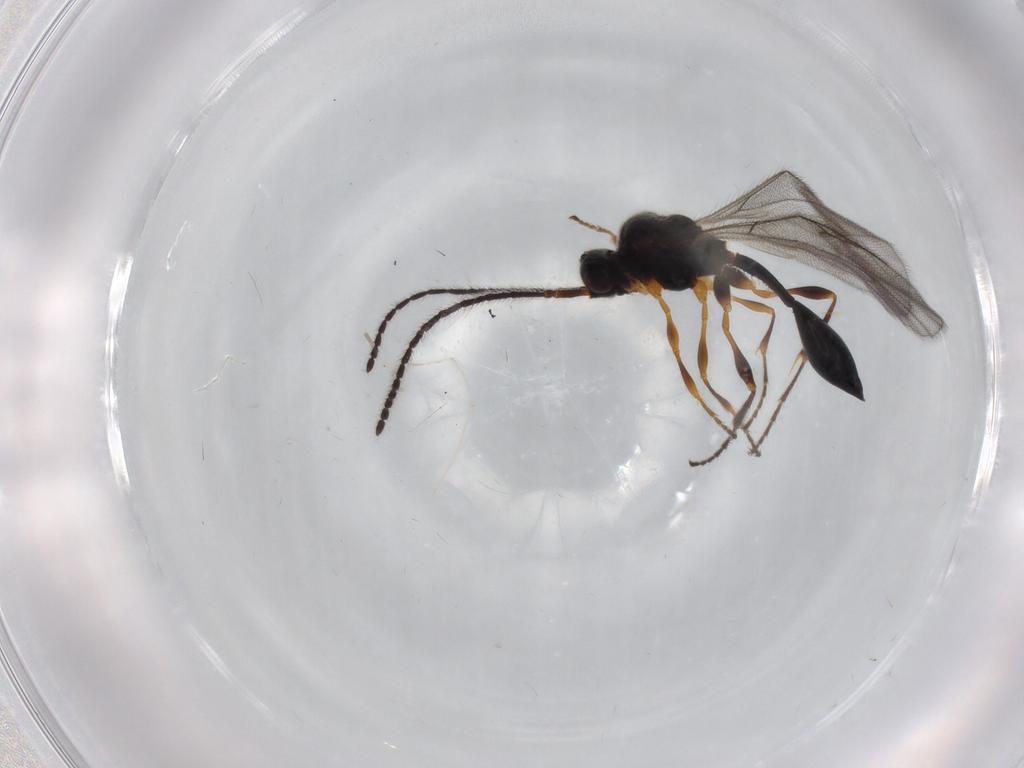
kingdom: Animalia
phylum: Arthropoda
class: Insecta
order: Hymenoptera
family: Diapriidae
